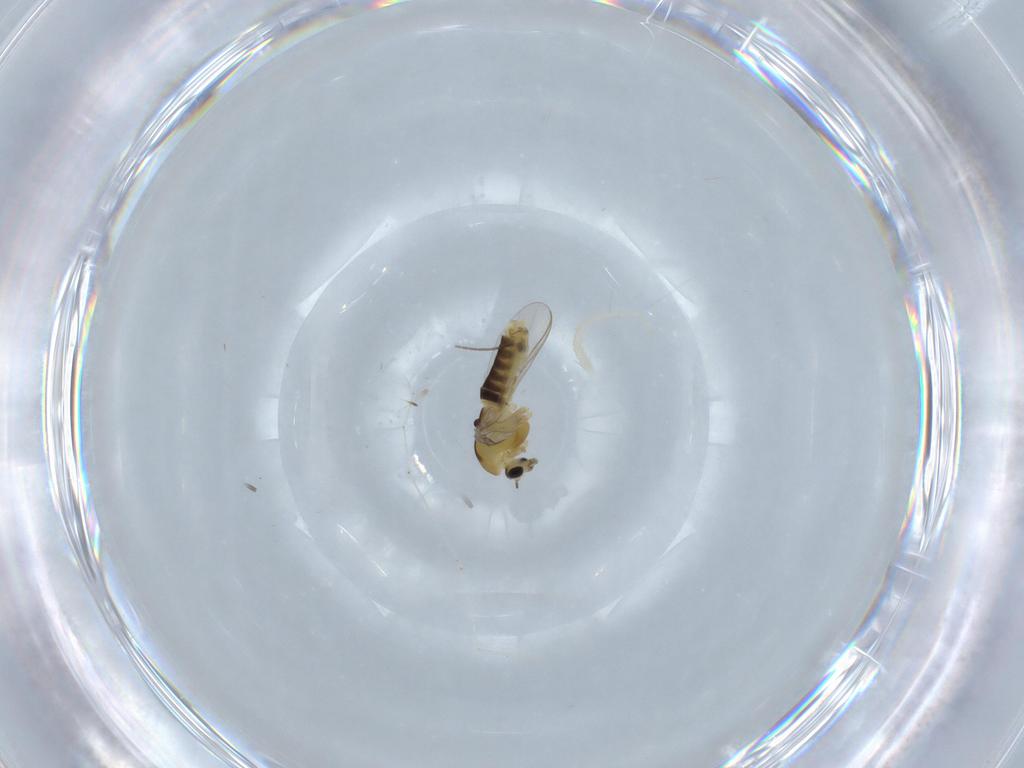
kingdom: Animalia
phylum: Arthropoda
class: Insecta
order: Diptera
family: Chironomidae
